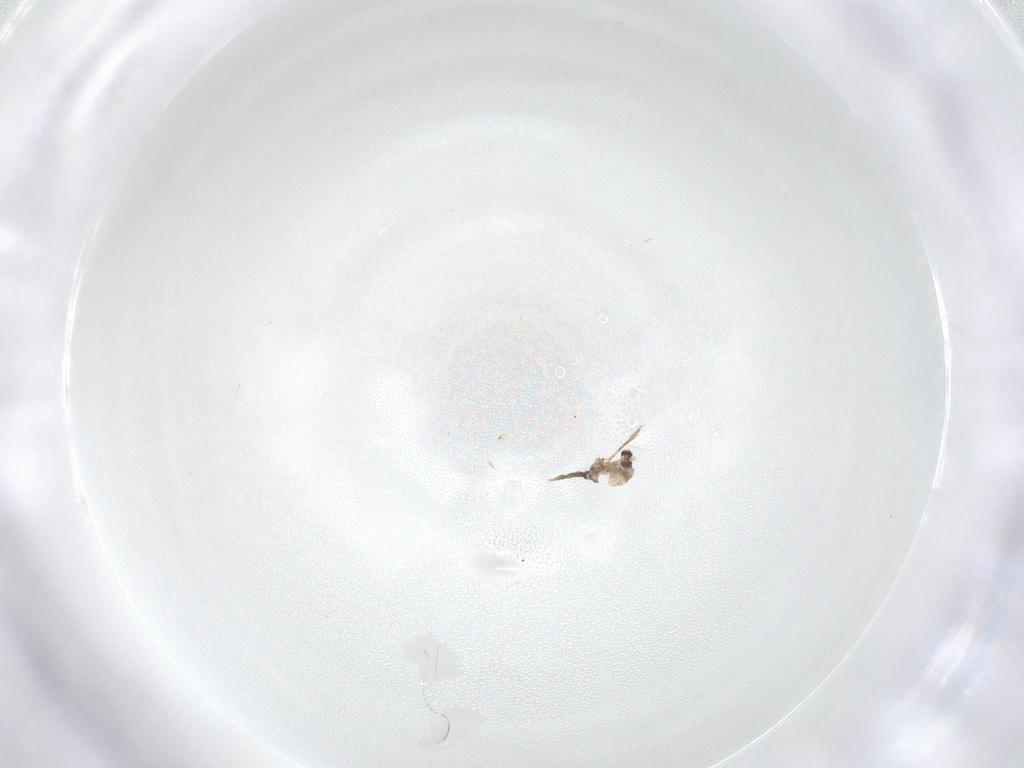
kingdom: Animalia
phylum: Arthropoda
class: Insecta
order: Diptera
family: Cecidomyiidae
